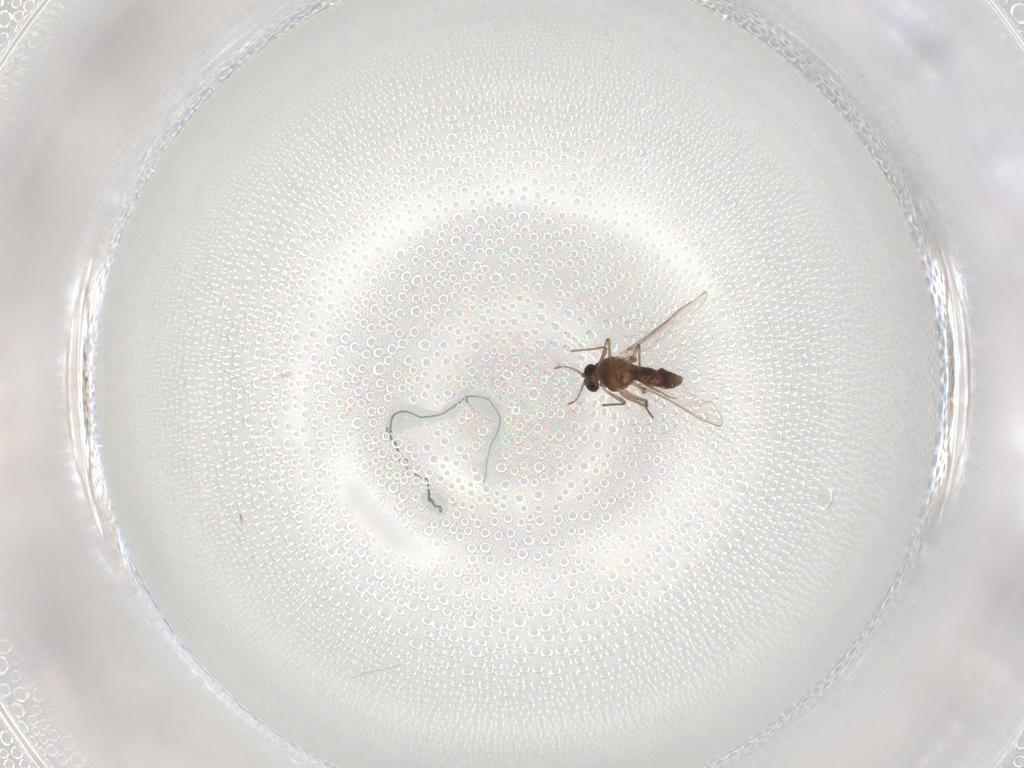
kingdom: Animalia
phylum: Arthropoda
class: Insecta
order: Diptera
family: Chironomidae
